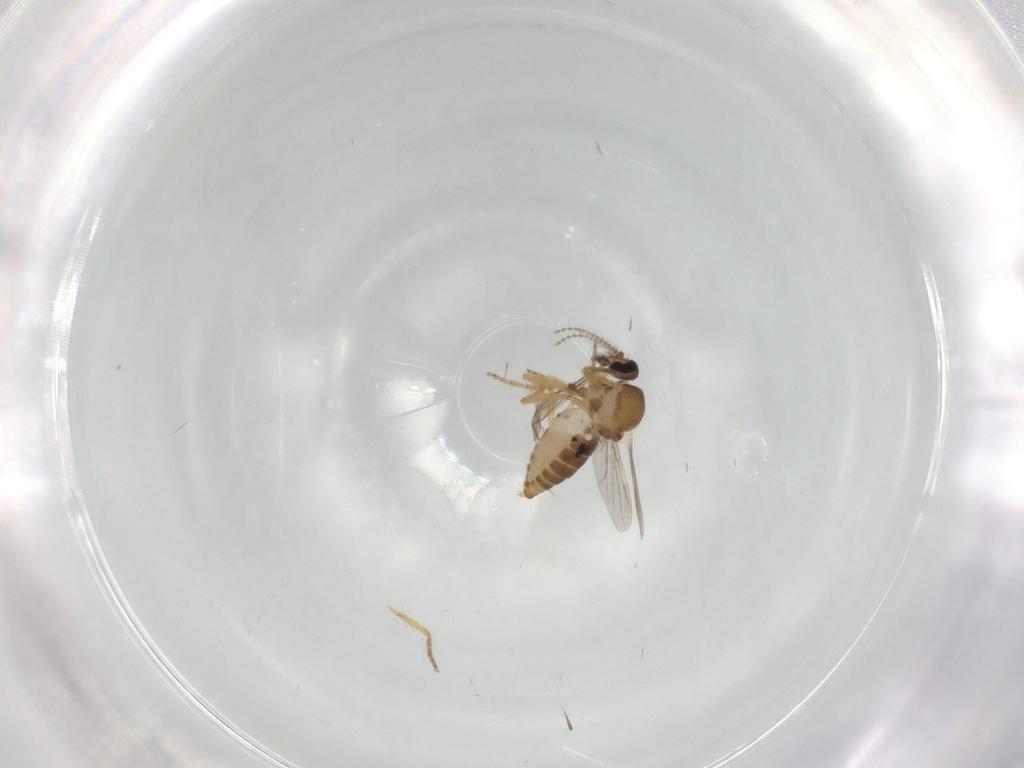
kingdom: Animalia
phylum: Arthropoda
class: Insecta
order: Diptera
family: Ceratopogonidae
